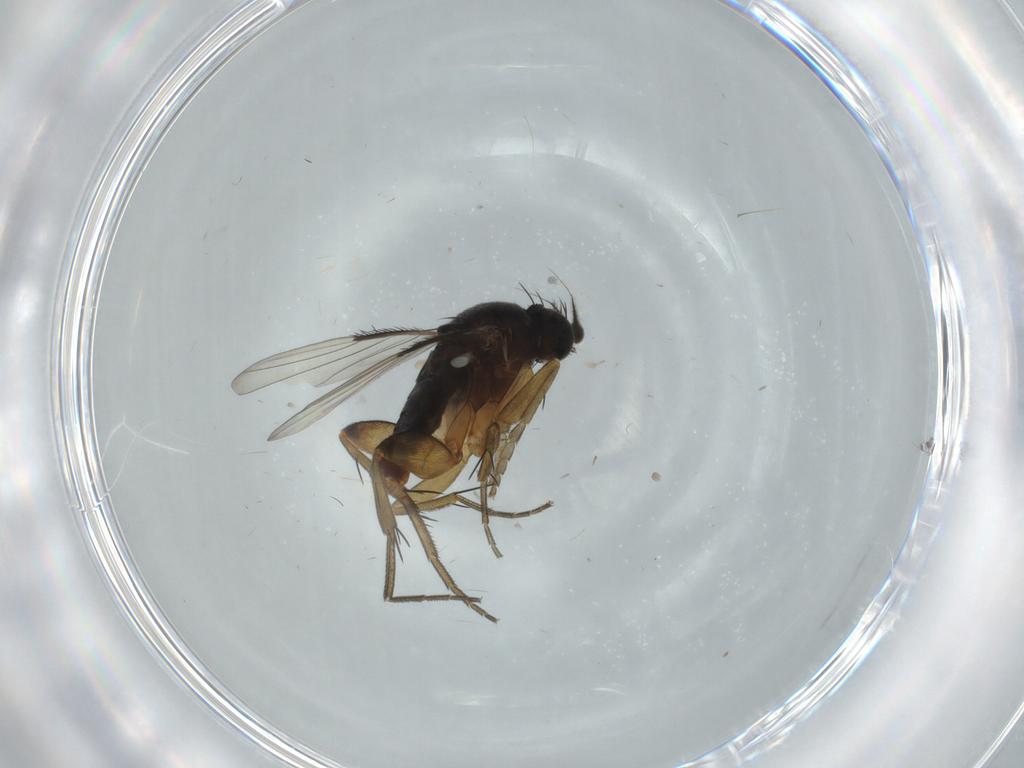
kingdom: Animalia
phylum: Arthropoda
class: Insecta
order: Diptera
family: Phoridae
